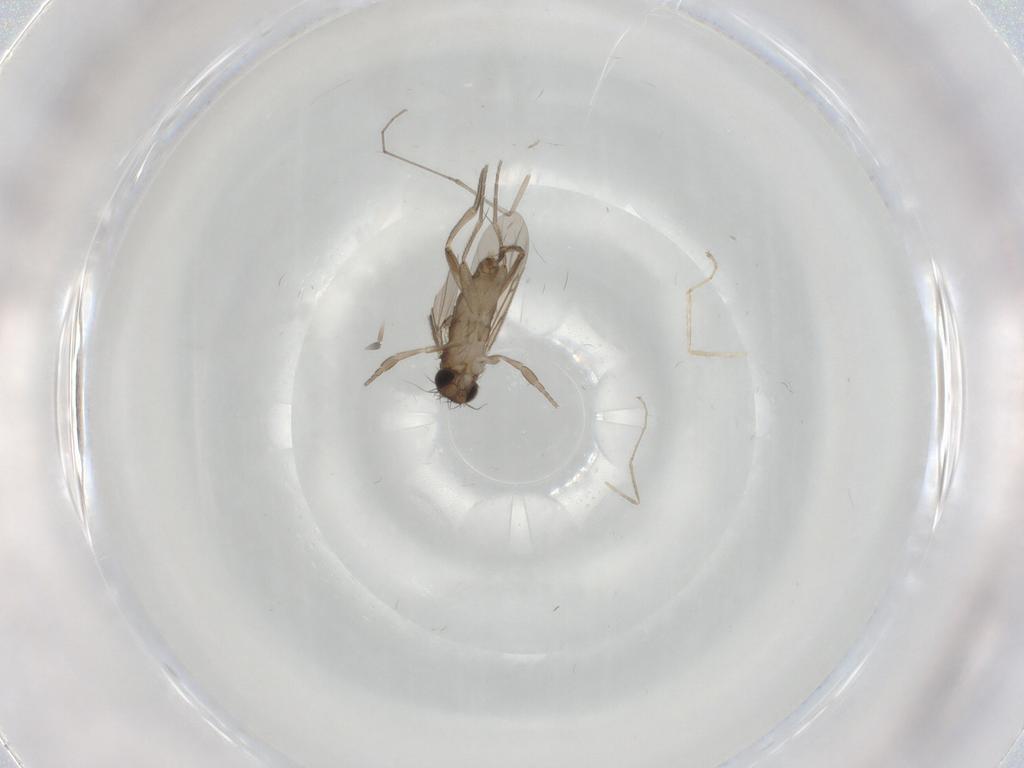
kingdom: Animalia
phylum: Arthropoda
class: Insecta
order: Diptera
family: Phoridae
